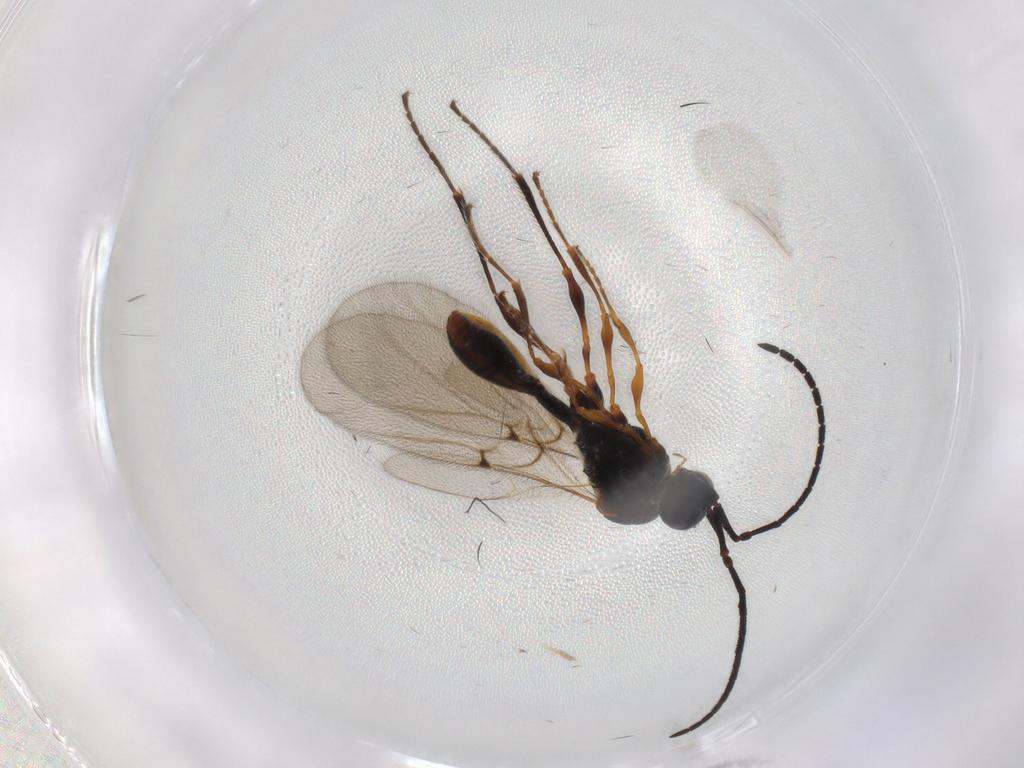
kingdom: Animalia
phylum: Arthropoda
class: Insecta
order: Hymenoptera
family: Diapriidae
